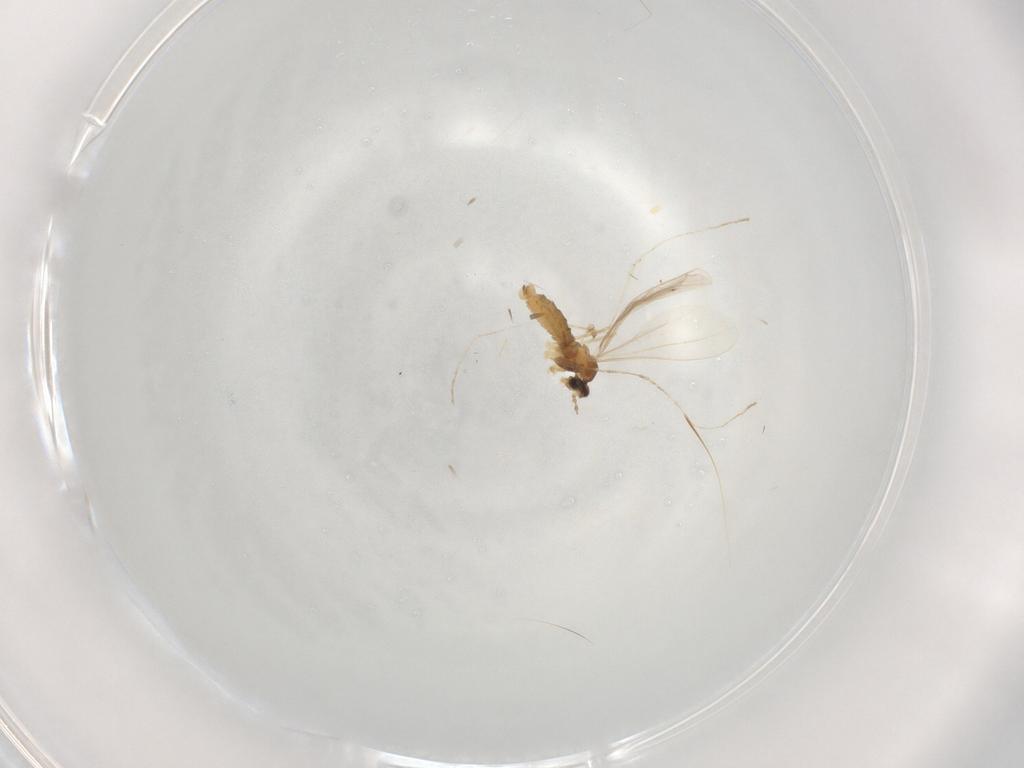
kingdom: Animalia
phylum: Arthropoda
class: Insecta
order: Diptera
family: Cecidomyiidae
